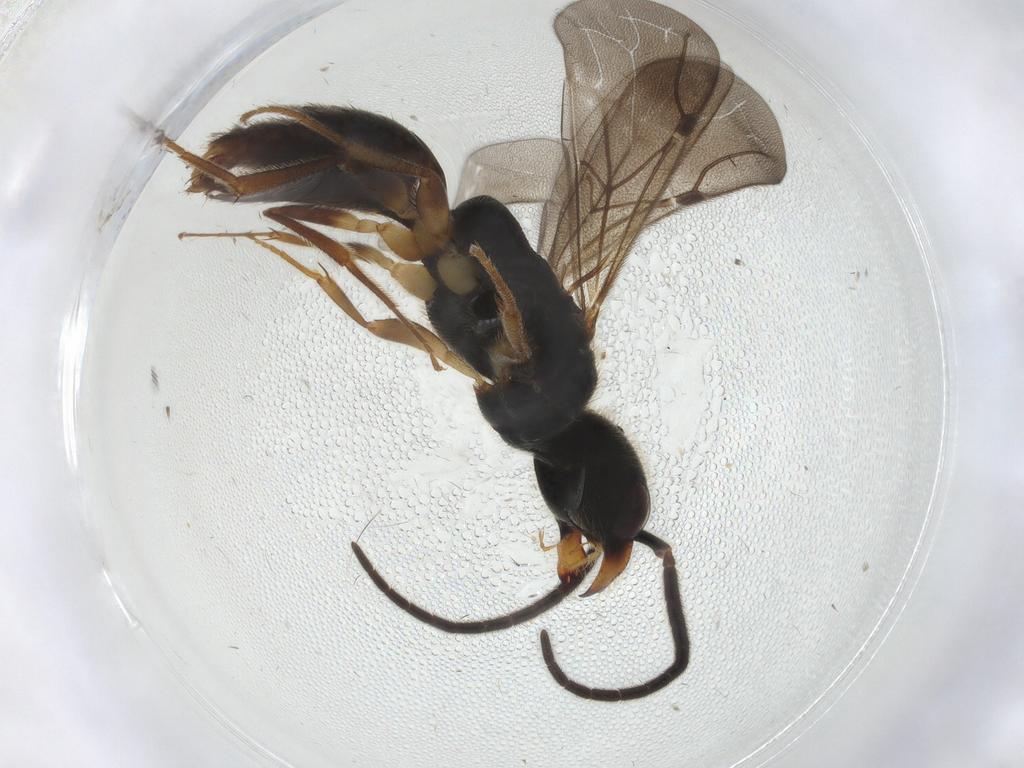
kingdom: Animalia
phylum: Arthropoda
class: Insecta
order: Hymenoptera
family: Bethylidae
